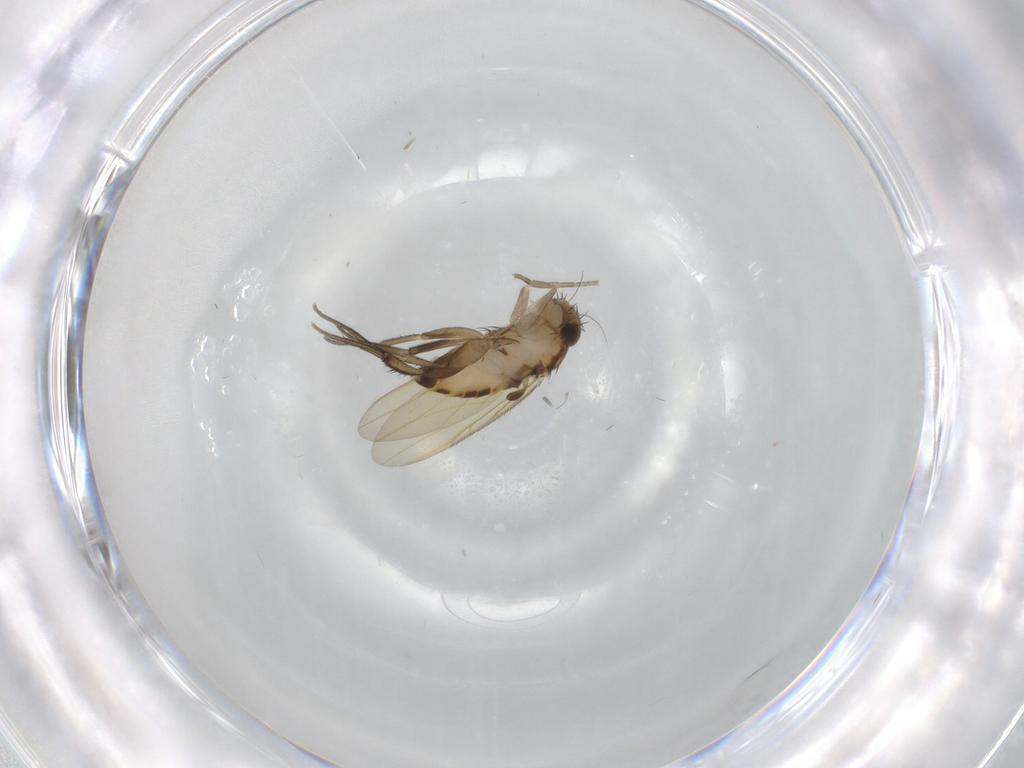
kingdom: Animalia
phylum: Arthropoda
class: Insecta
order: Diptera
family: Phoridae
